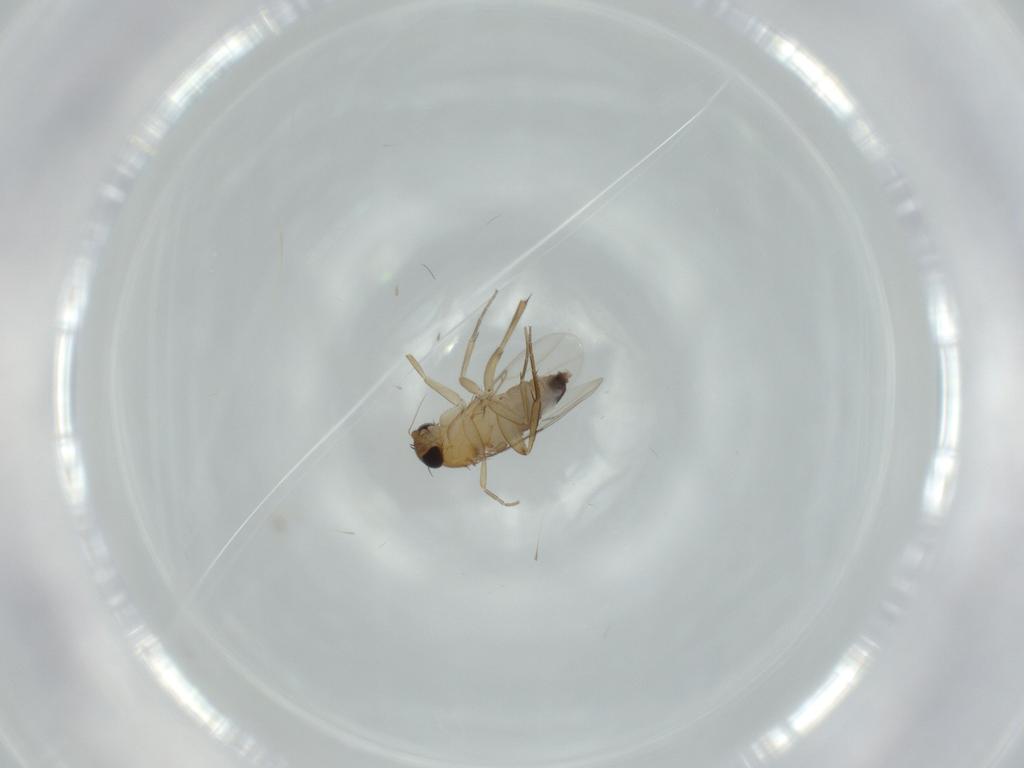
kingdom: Animalia
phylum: Arthropoda
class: Insecta
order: Diptera
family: Phoridae
